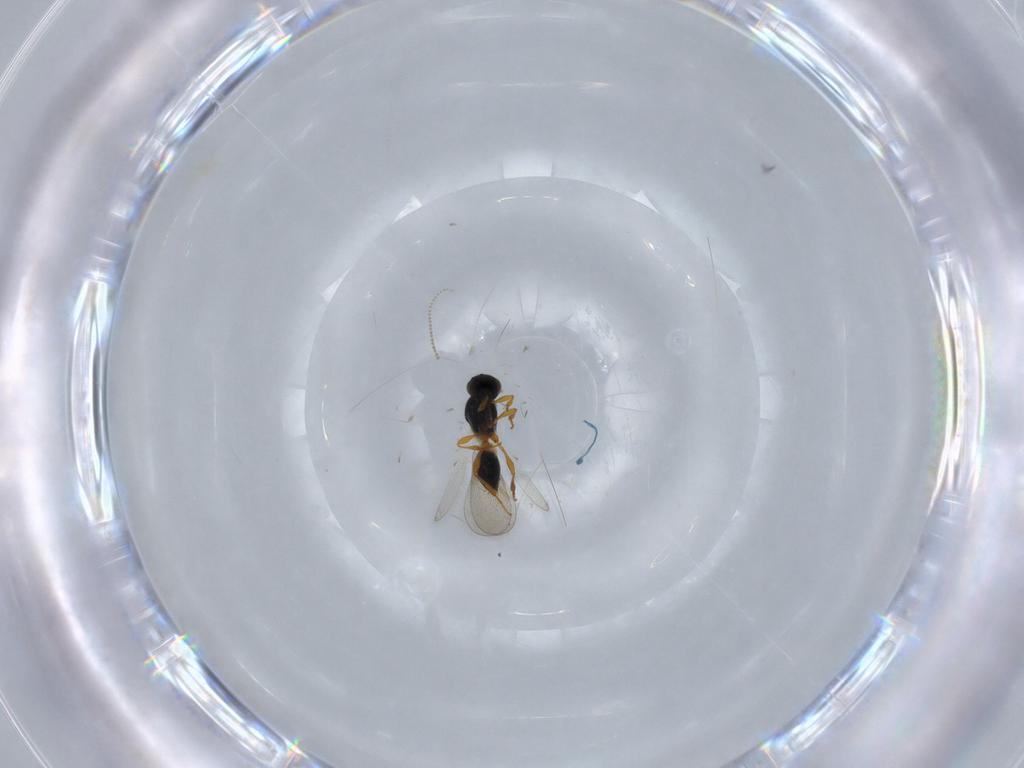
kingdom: Animalia
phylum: Arthropoda
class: Insecta
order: Hymenoptera
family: Platygastridae
